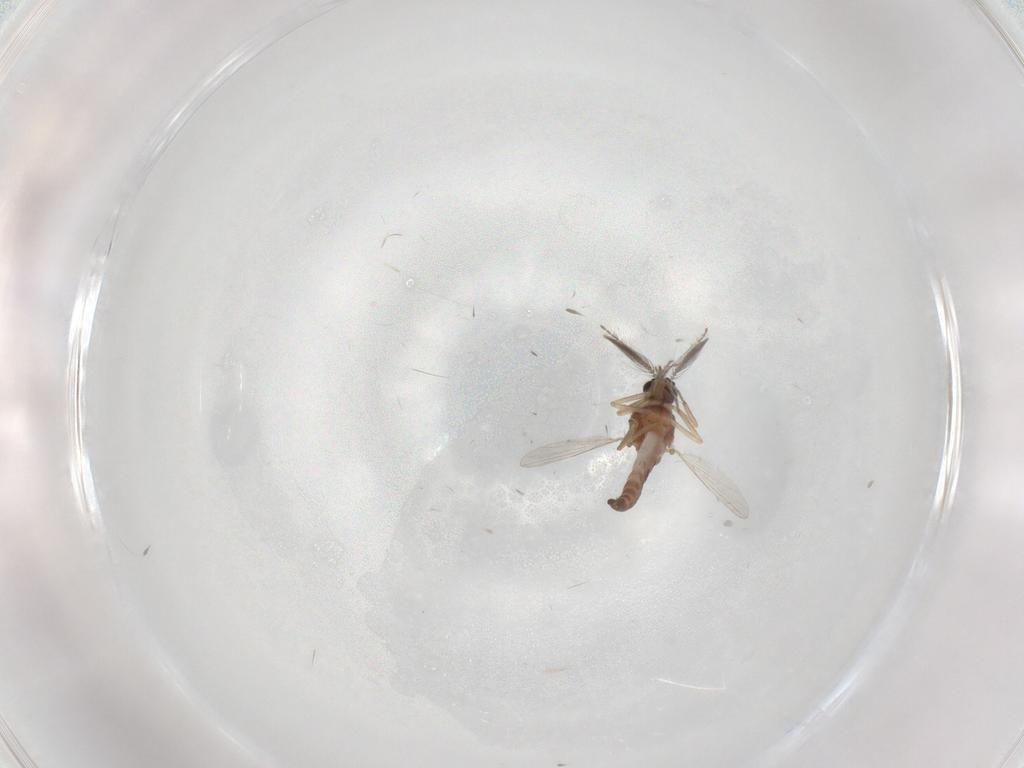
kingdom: Animalia
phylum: Arthropoda
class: Insecta
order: Diptera
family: Ceratopogonidae
